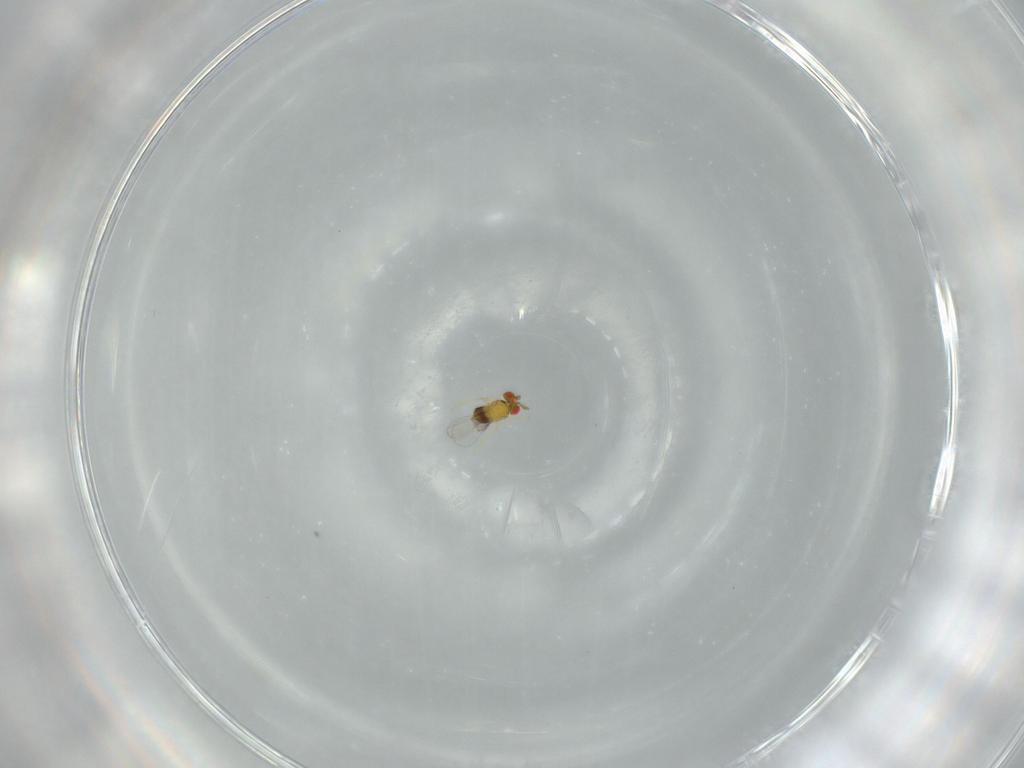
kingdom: Animalia
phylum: Arthropoda
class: Insecta
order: Hymenoptera
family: Trichogrammatidae
